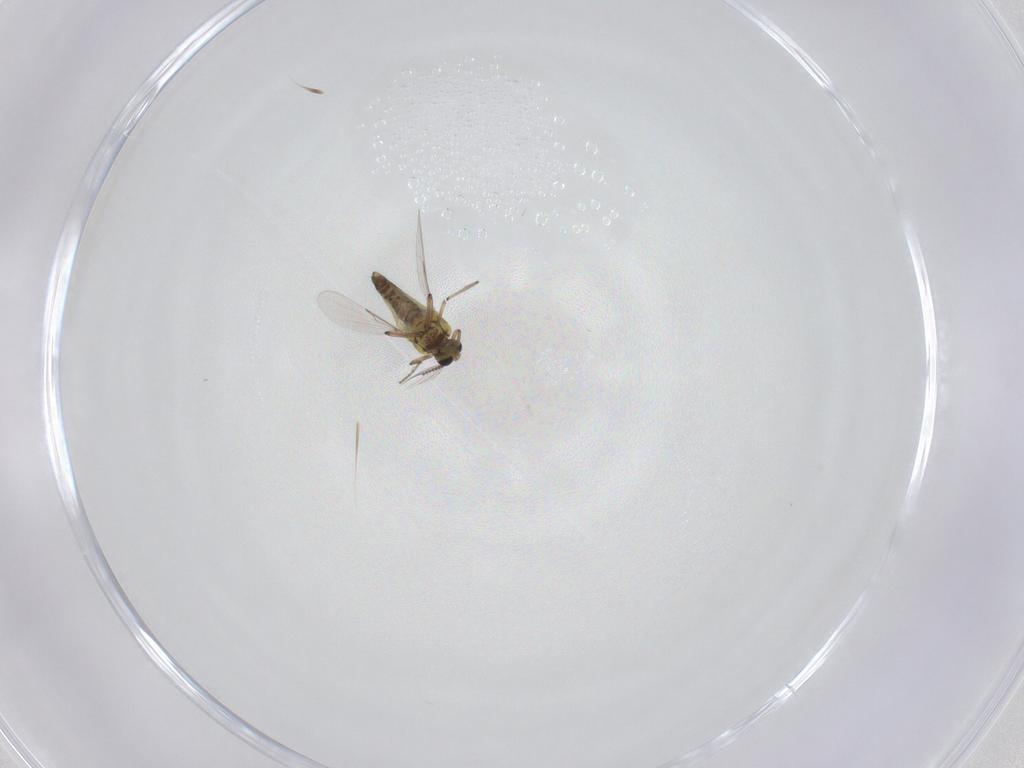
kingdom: Animalia
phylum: Arthropoda
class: Insecta
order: Diptera
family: Ceratopogonidae
